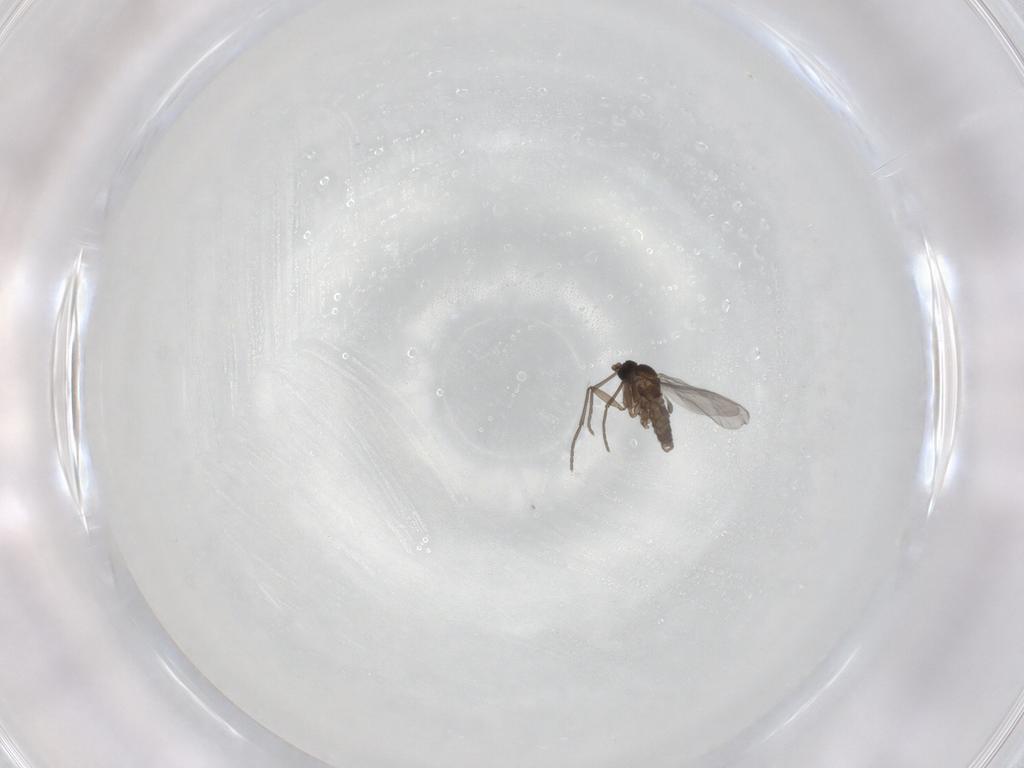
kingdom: Animalia
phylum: Arthropoda
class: Insecta
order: Diptera
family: Sciaridae
